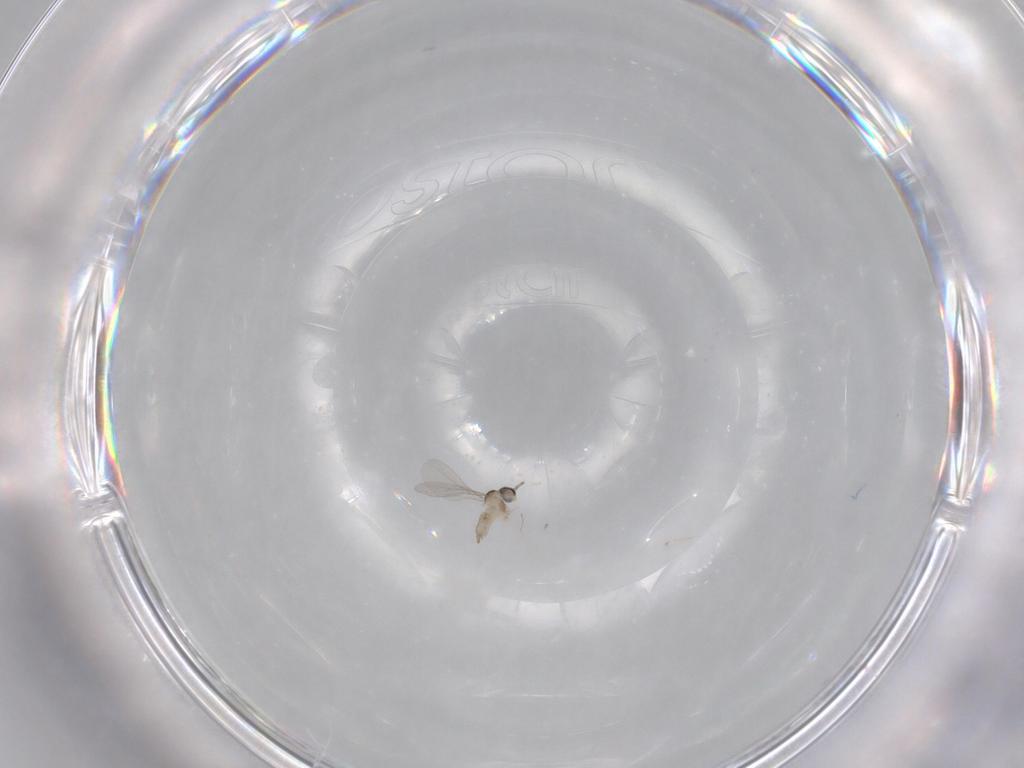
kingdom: Animalia
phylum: Arthropoda
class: Insecta
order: Diptera
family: Cecidomyiidae
